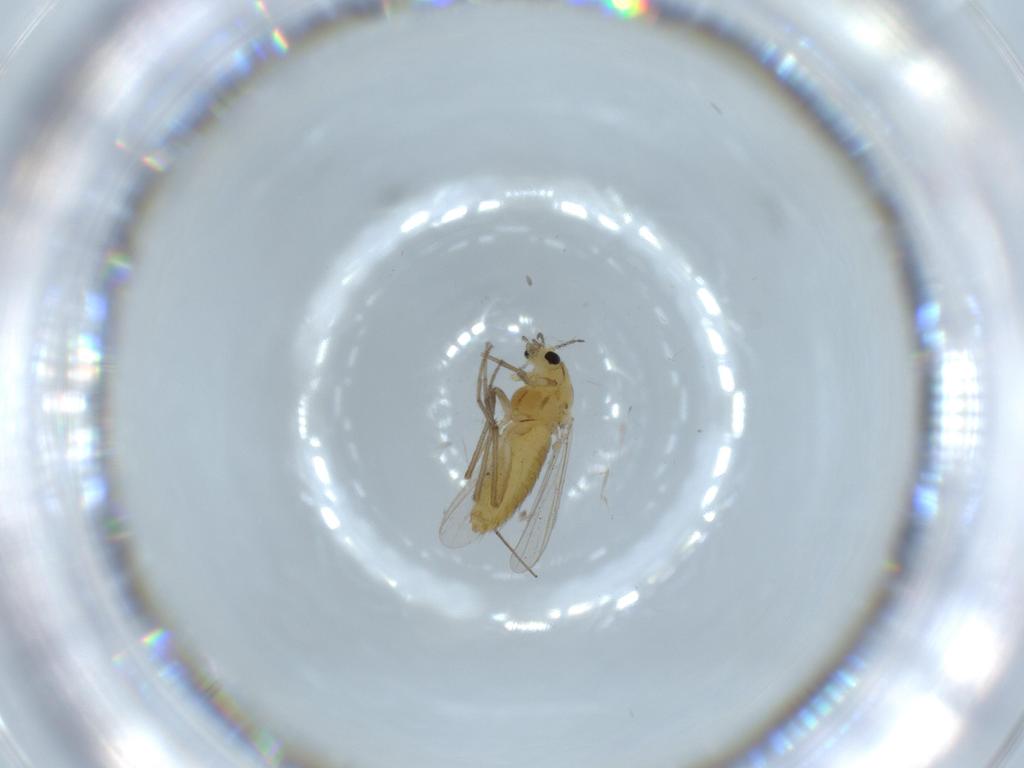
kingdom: Animalia
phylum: Arthropoda
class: Insecta
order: Diptera
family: Chironomidae
